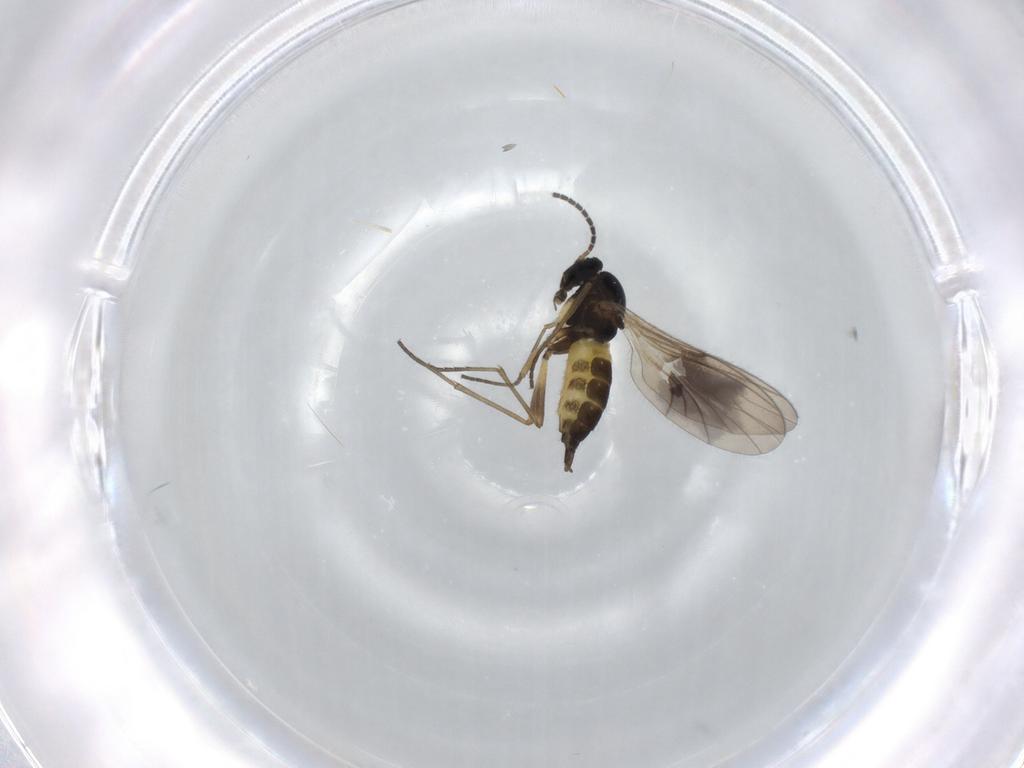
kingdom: Animalia
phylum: Arthropoda
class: Insecta
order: Diptera
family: Sciaridae
